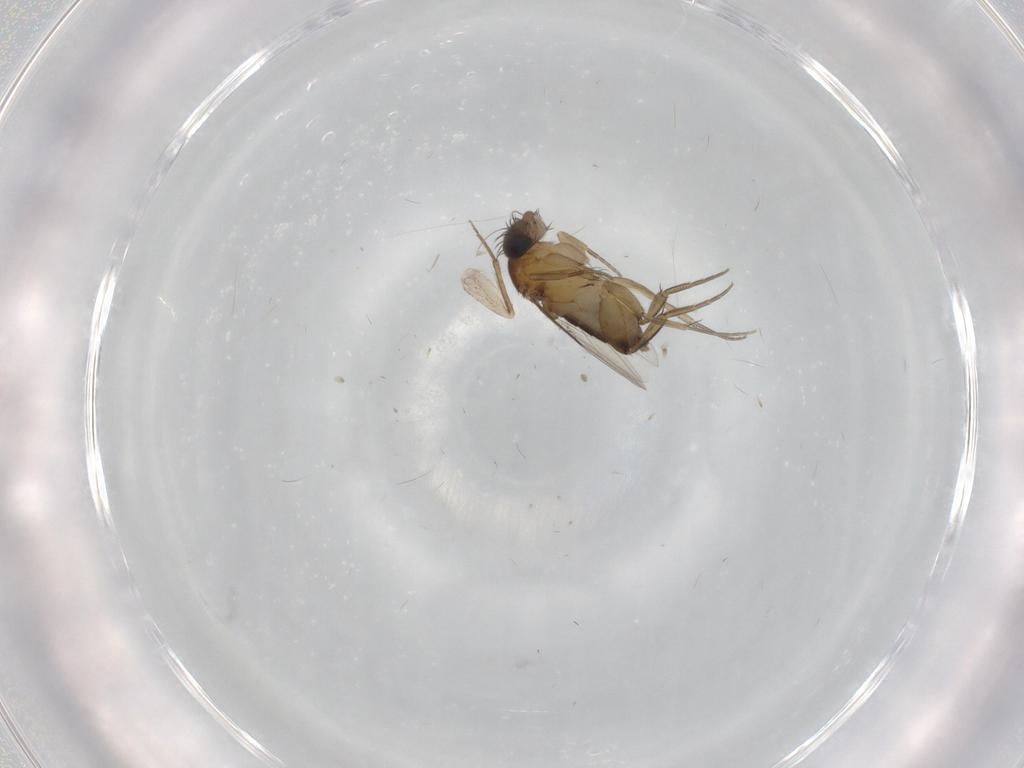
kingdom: Animalia
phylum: Arthropoda
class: Insecta
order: Diptera
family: Phoridae
